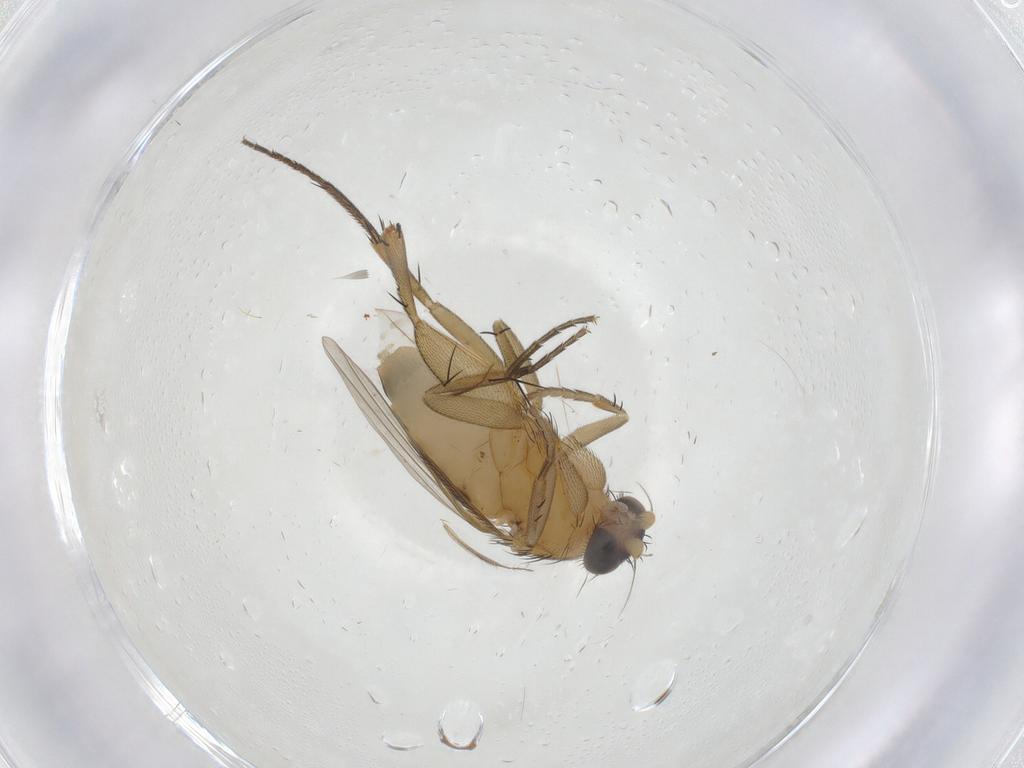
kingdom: Animalia
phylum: Arthropoda
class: Insecta
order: Diptera
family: Phoridae
